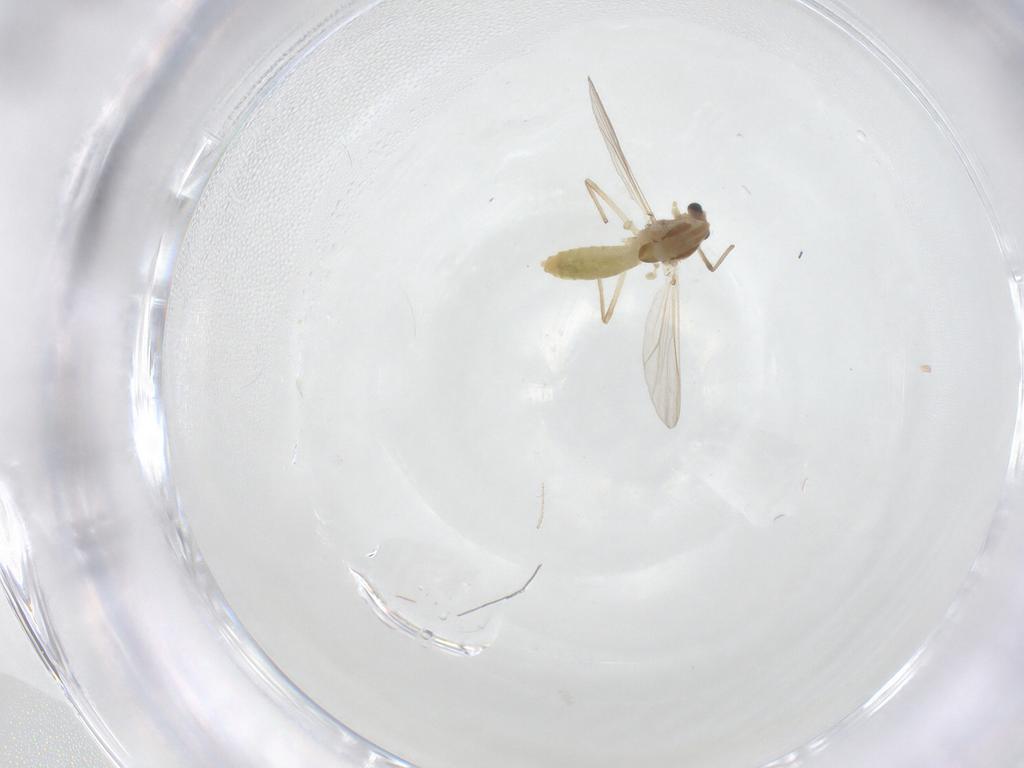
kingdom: Animalia
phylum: Arthropoda
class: Insecta
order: Diptera
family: Chironomidae
